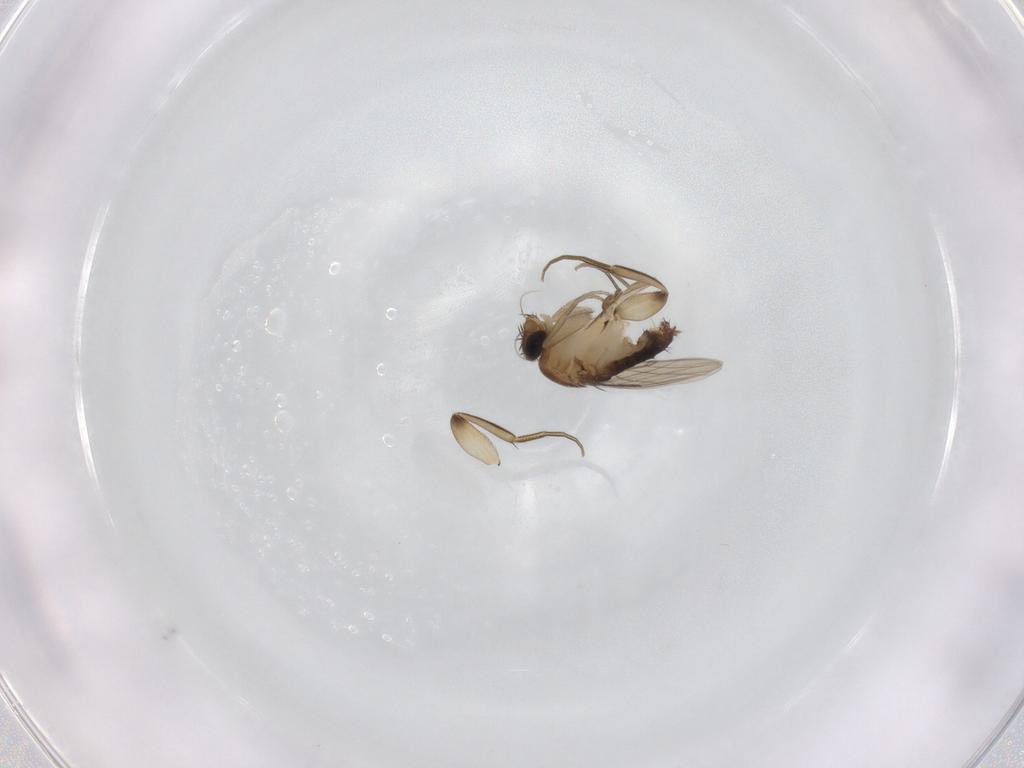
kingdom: Animalia
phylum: Arthropoda
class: Insecta
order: Diptera
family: Phoridae
